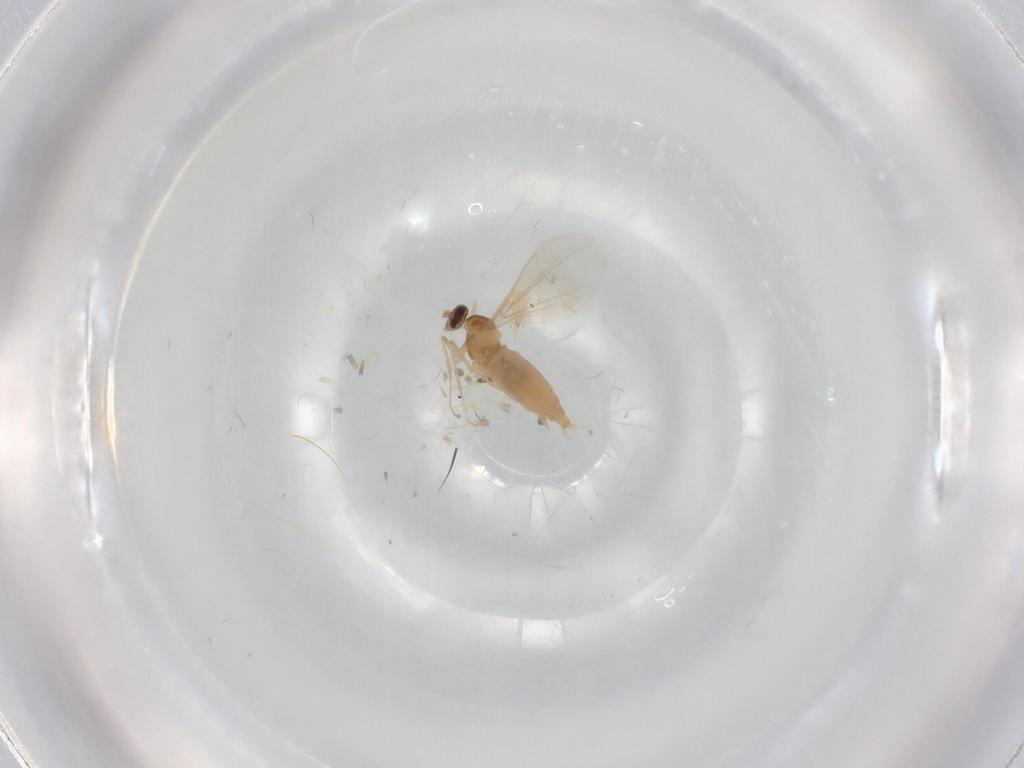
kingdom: Animalia
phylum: Arthropoda
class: Insecta
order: Diptera
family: Cecidomyiidae
